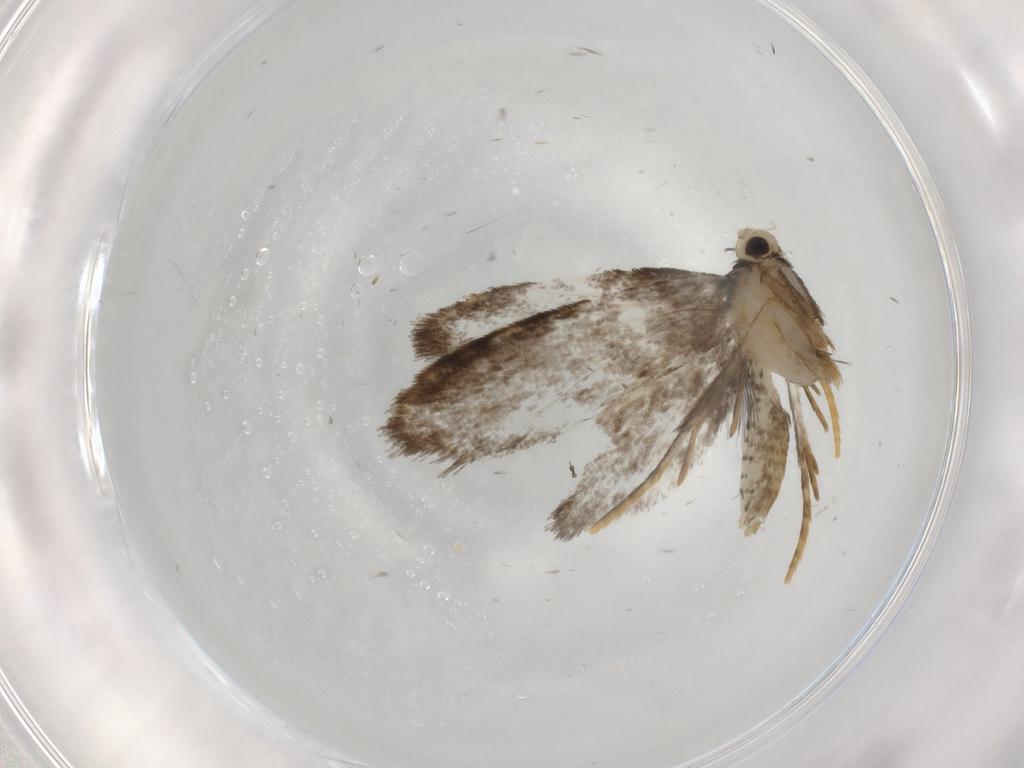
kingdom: Animalia
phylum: Arthropoda
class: Insecta
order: Lepidoptera
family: Psychidae
